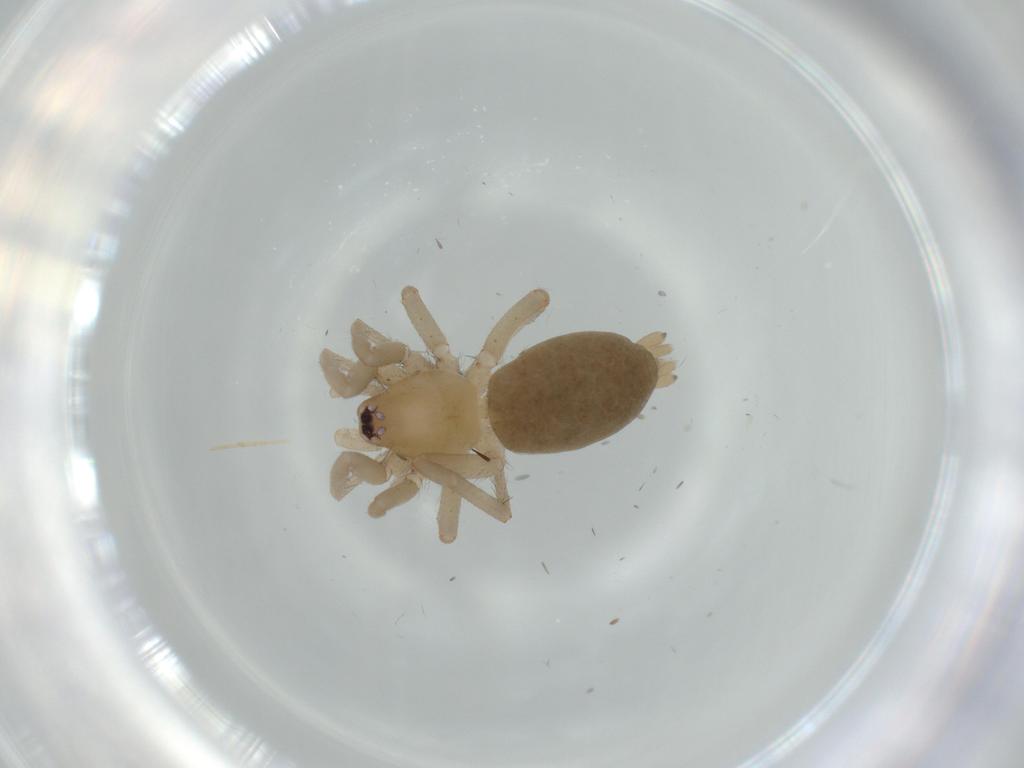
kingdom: Animalia
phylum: Arthropoda
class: Arachnida
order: Araneae
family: Gnaphosidae
